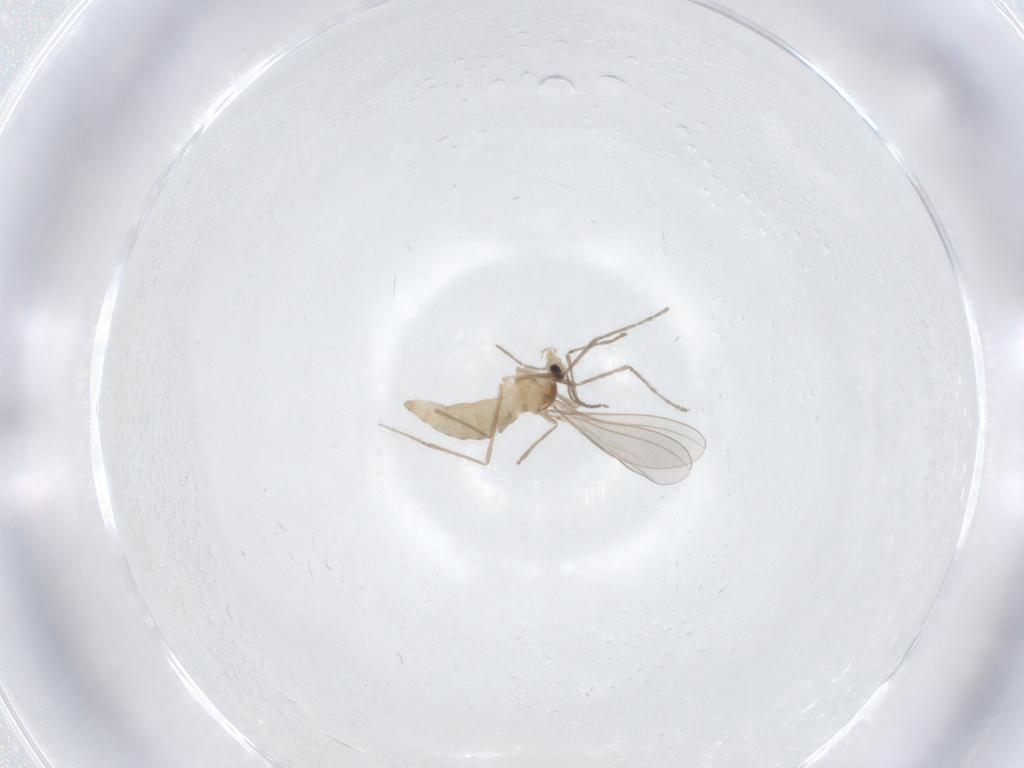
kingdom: Animalia
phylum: Arthropoda
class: Insecta
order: Diptera
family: Cecidomyiidae
